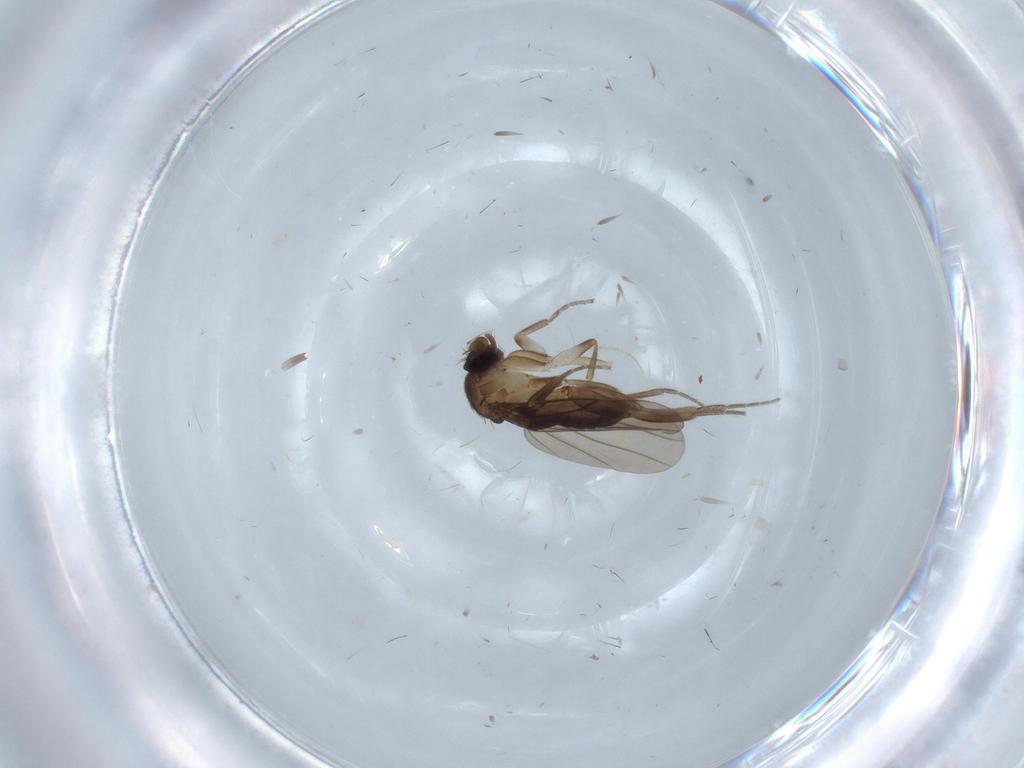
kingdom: Animalia
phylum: Arthropoda
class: Insecta
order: Diptera
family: Cecidomyiidae
